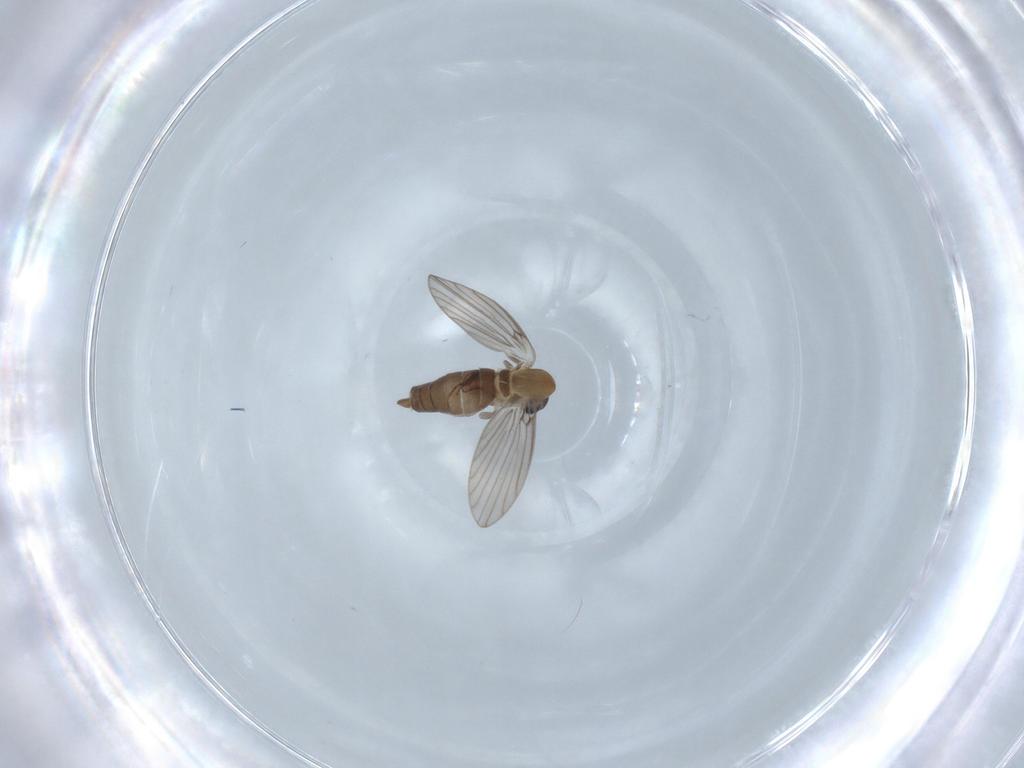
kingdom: Animalia
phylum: Arthropoda
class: Insecta
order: Diptera
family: Psychodidae
